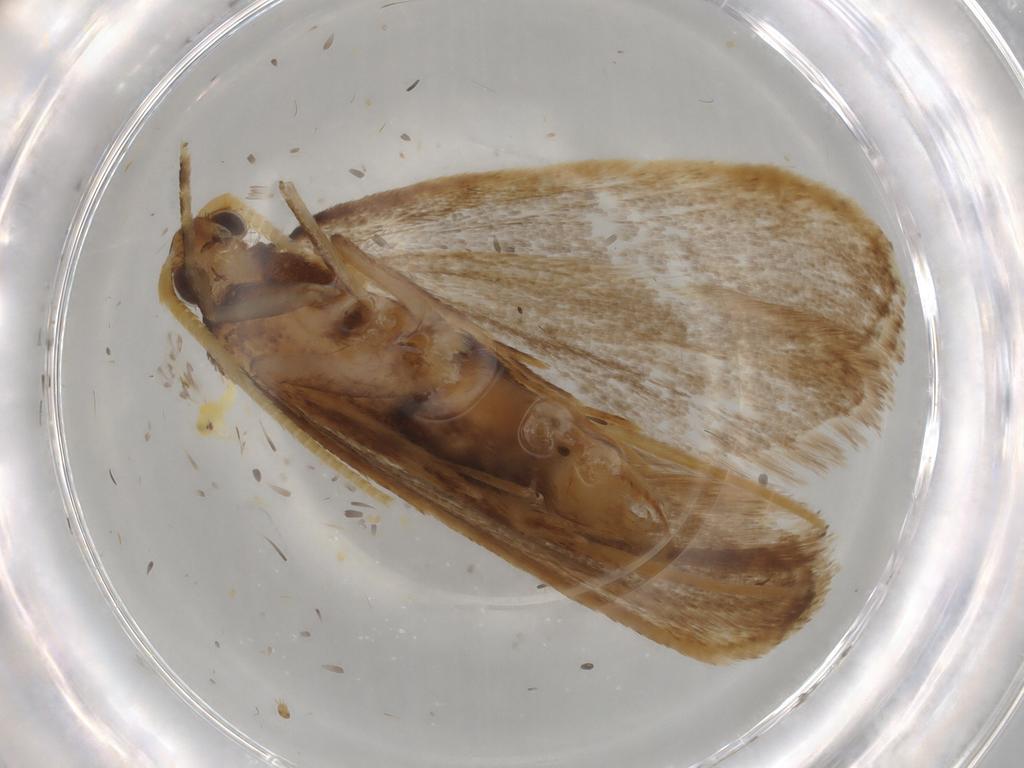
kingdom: Animalia
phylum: Arthropoda
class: Insecta
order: Lepidoptera
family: Lecithoceridae
